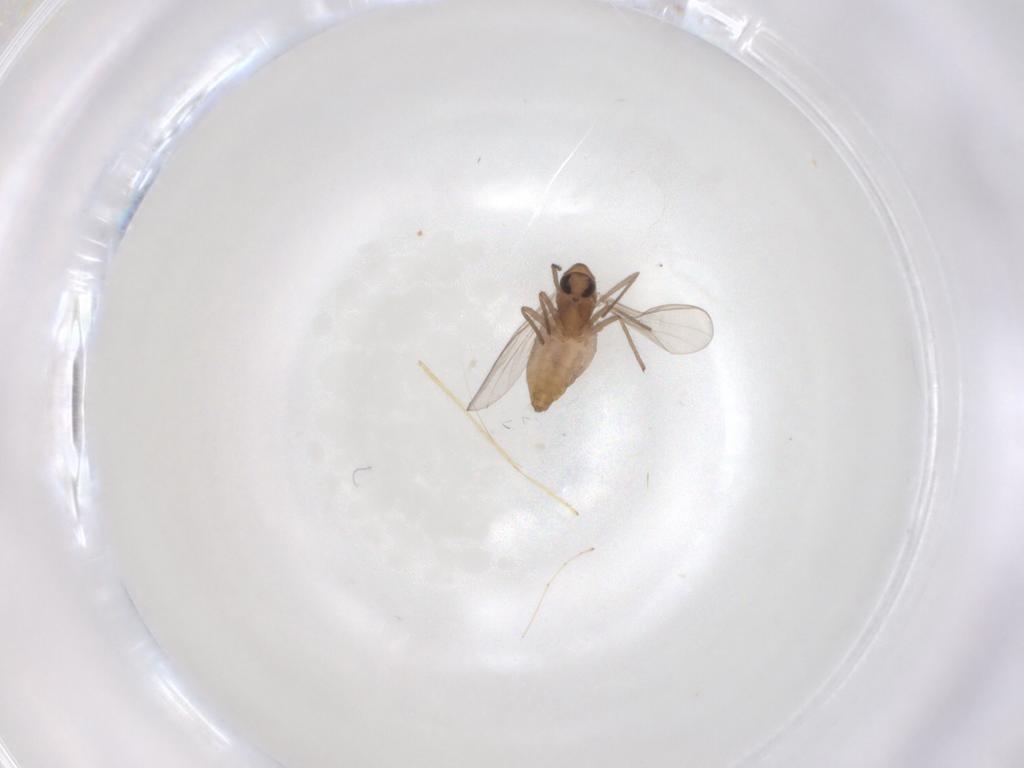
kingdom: Animalia
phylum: Arthropoda
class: Insecta
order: Diptera
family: Chironomidae
